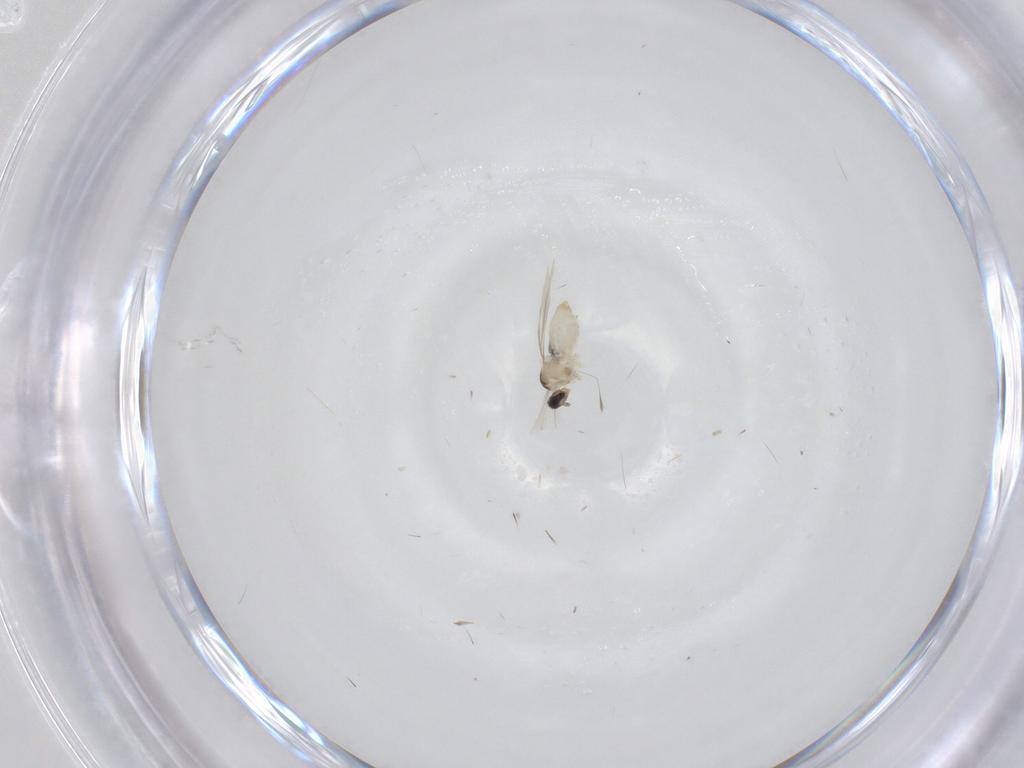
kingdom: Animalia
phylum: Arthropoda
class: Insecta
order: Diptera
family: Cecidomyiidae
